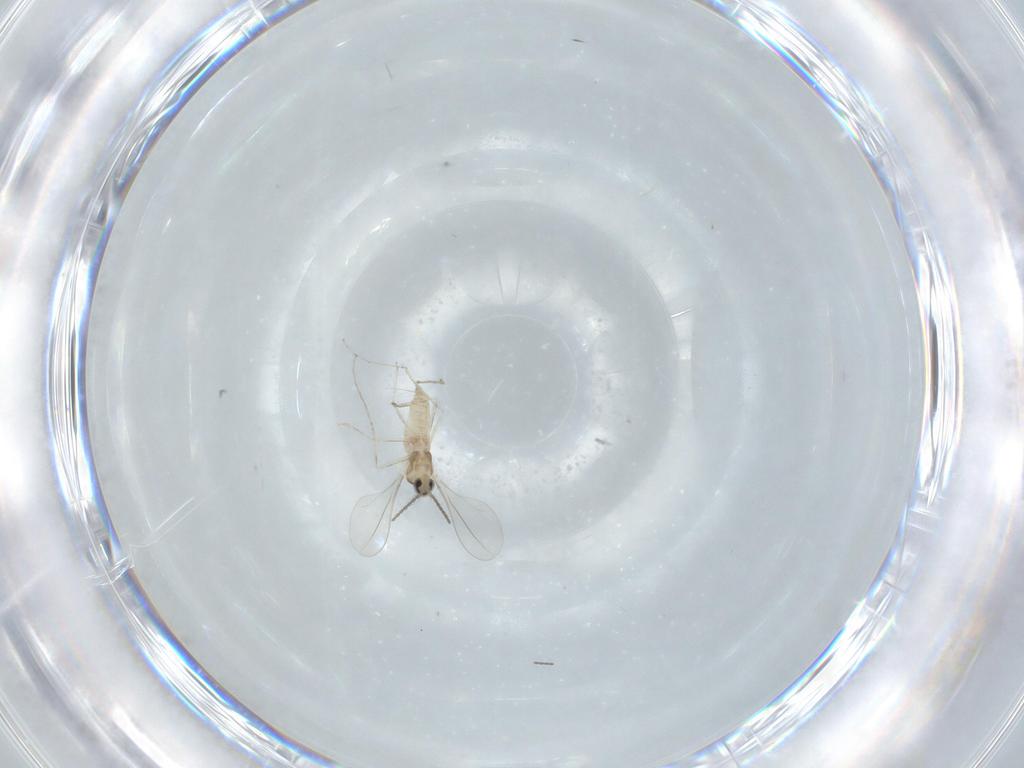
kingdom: Animalia
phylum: Arthropoda
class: Insecta
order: Diptera
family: Cecidomyiidae
